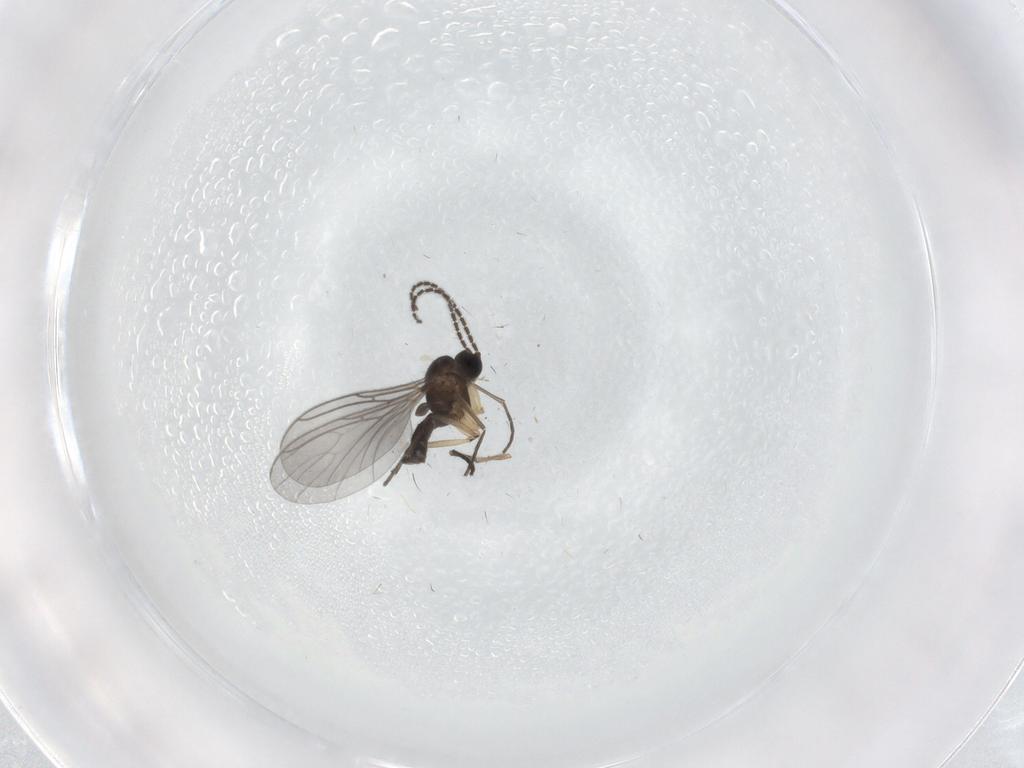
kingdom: Animalia
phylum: Arthropoda
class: Insecta
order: Diptera
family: Sciaridae
